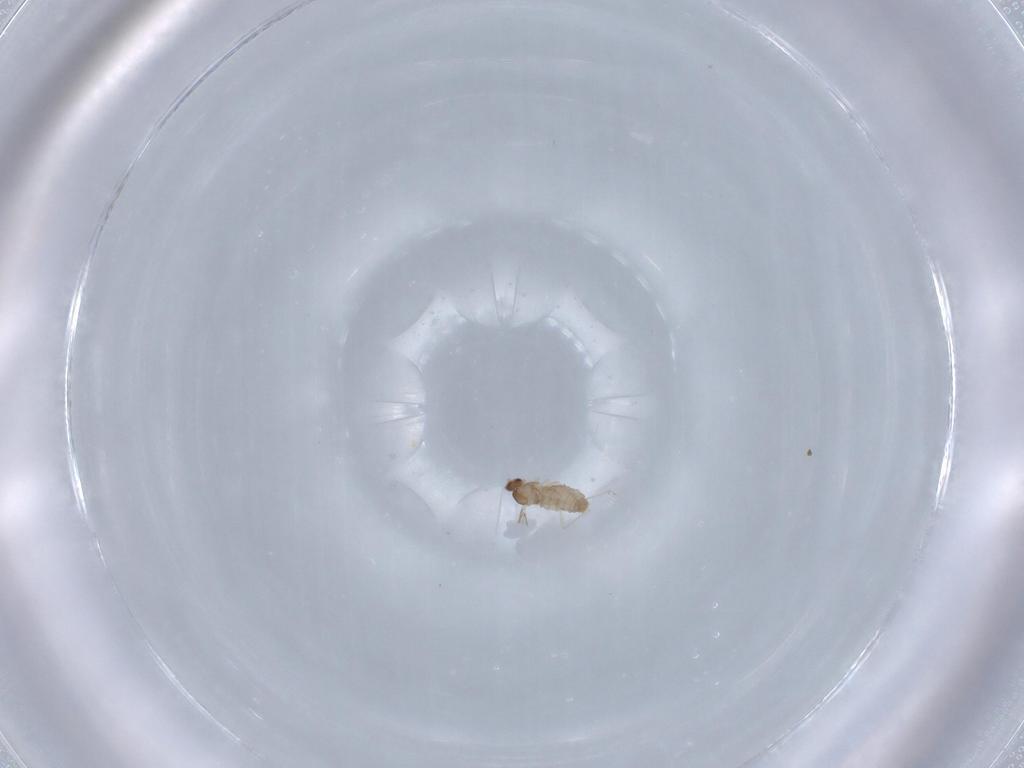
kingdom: Animalia
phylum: Arthropoda
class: Insecta
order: Diptera
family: Cecidomyiidae
